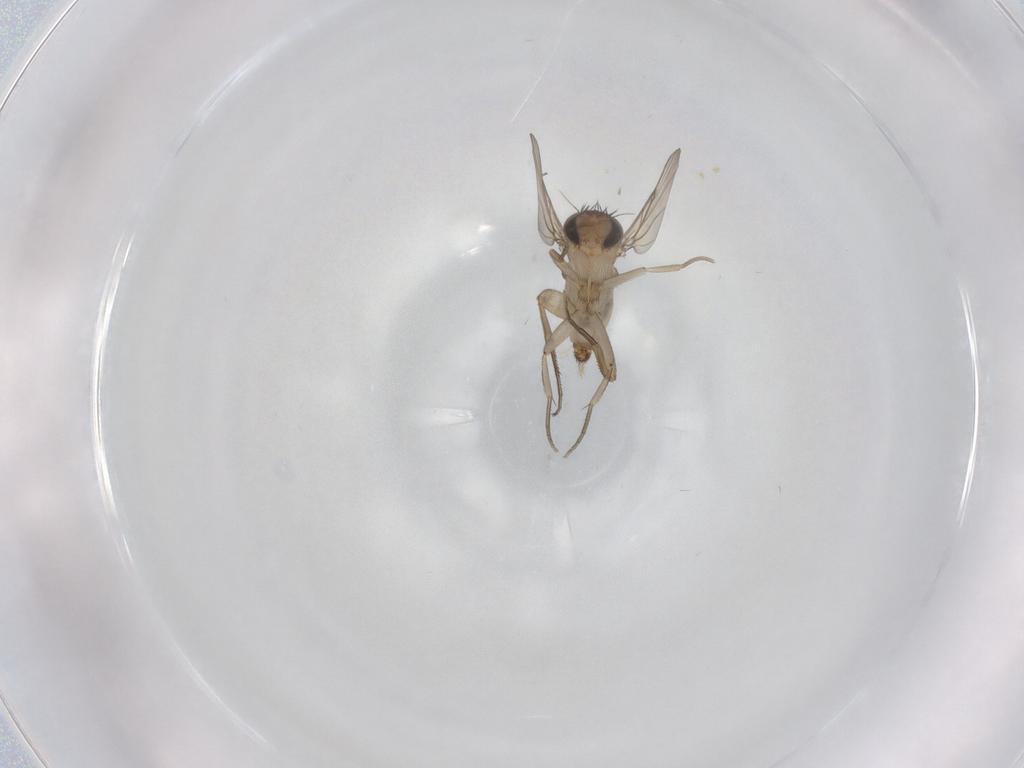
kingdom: Animalia
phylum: Arthropoda
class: Insecta
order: Diptera
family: Phoridae
